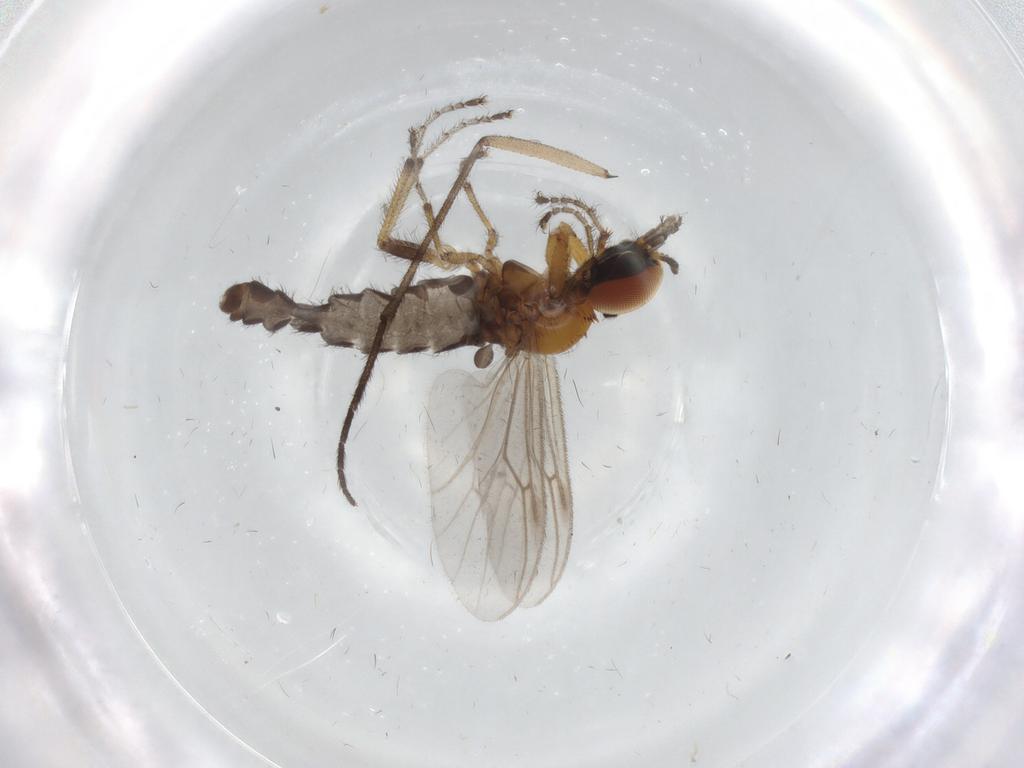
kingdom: Animalia
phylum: Arthropoda
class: Insecta
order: Diptera
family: Bibionidae
